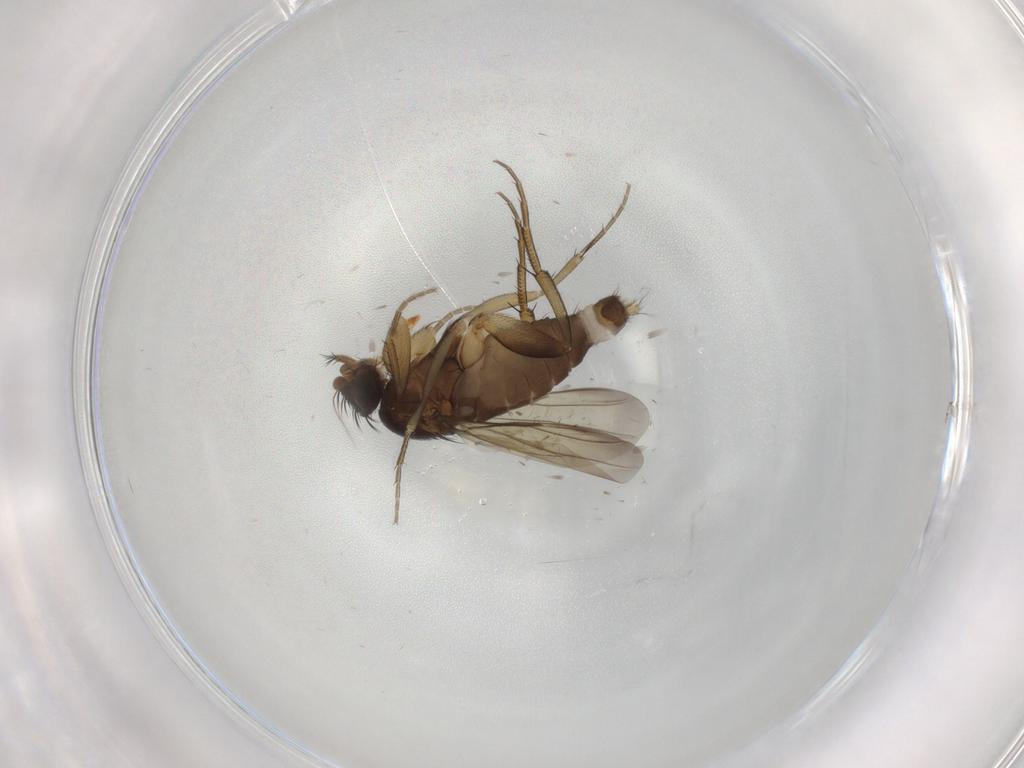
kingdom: Animalia
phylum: Arthropoda
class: Insecta
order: Diptera
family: Phoridae
